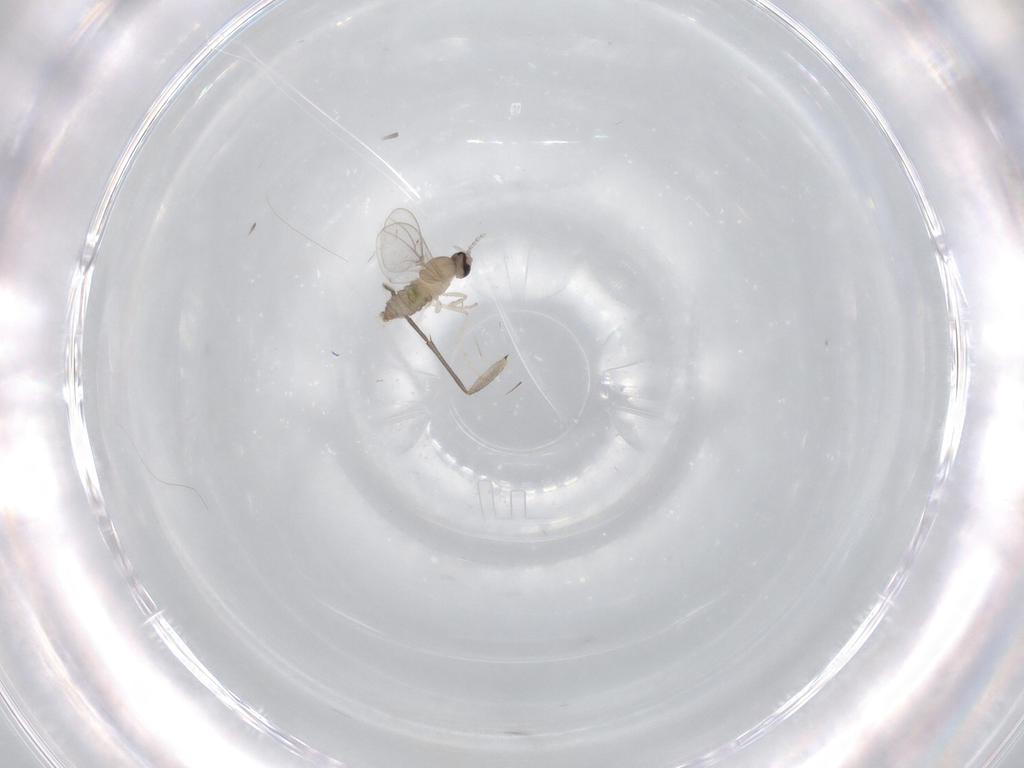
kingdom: Animalia
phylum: Arthropoda
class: Insecta
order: Diptera
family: Cecidomyiidae
